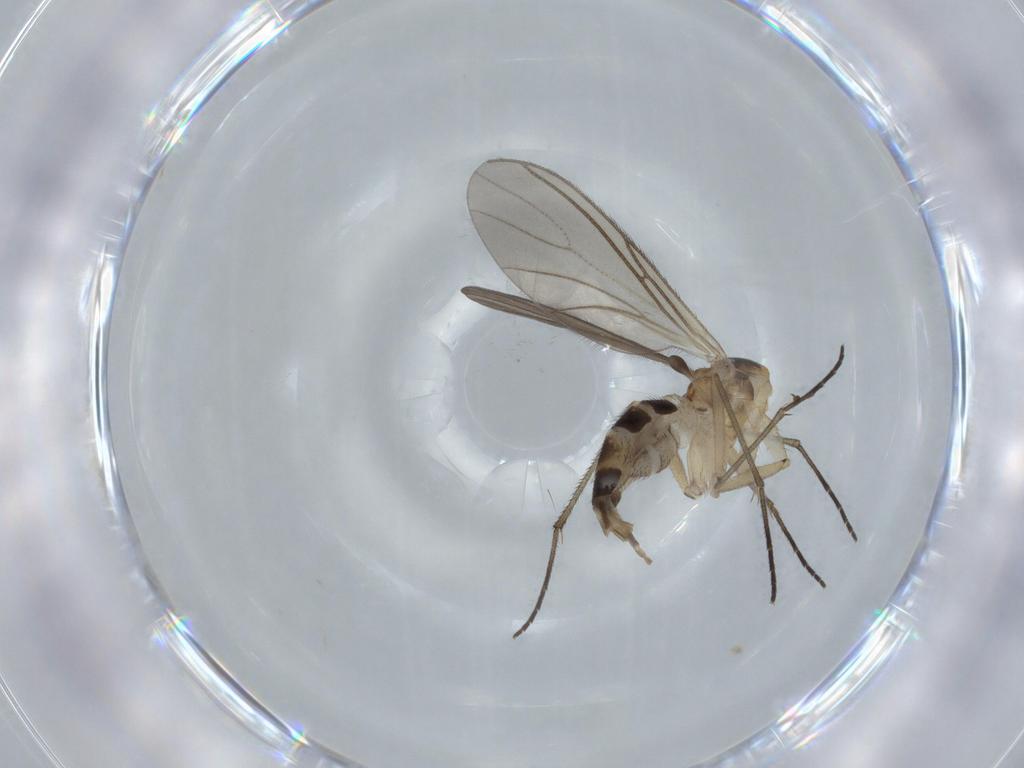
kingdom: Animalia
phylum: Arthropoda
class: Insecta
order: Diptera
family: Sciaridae
